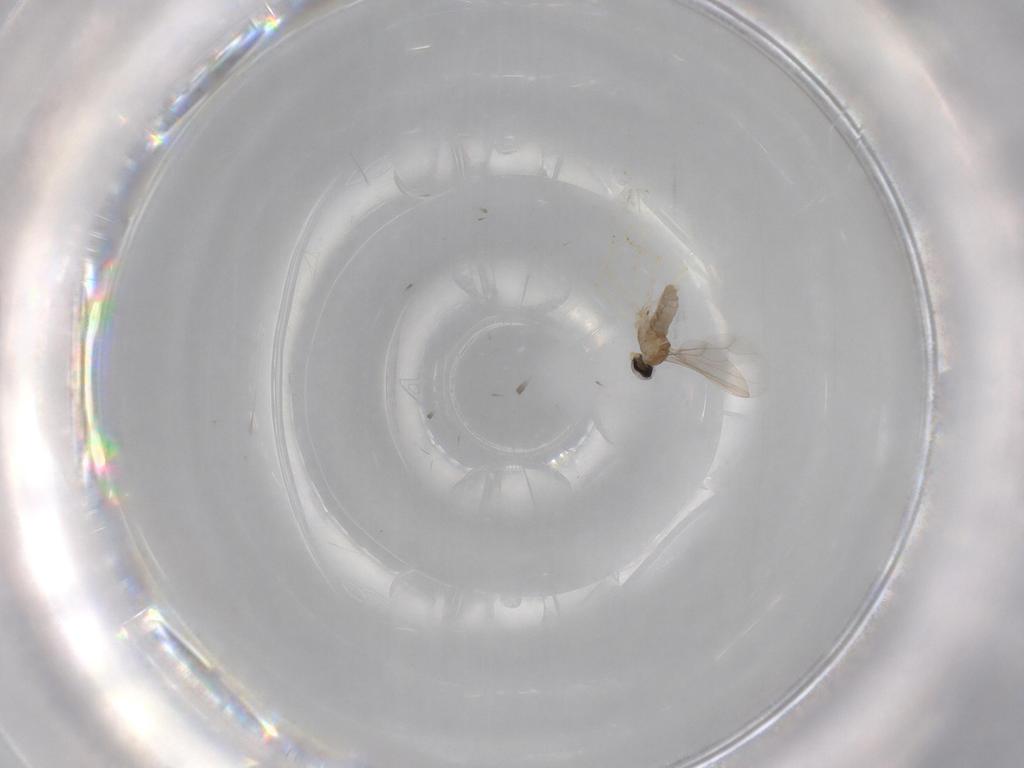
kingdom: Animalia
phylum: Arthropoda
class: Insecta
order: Diptera
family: Cecidomyiidae
